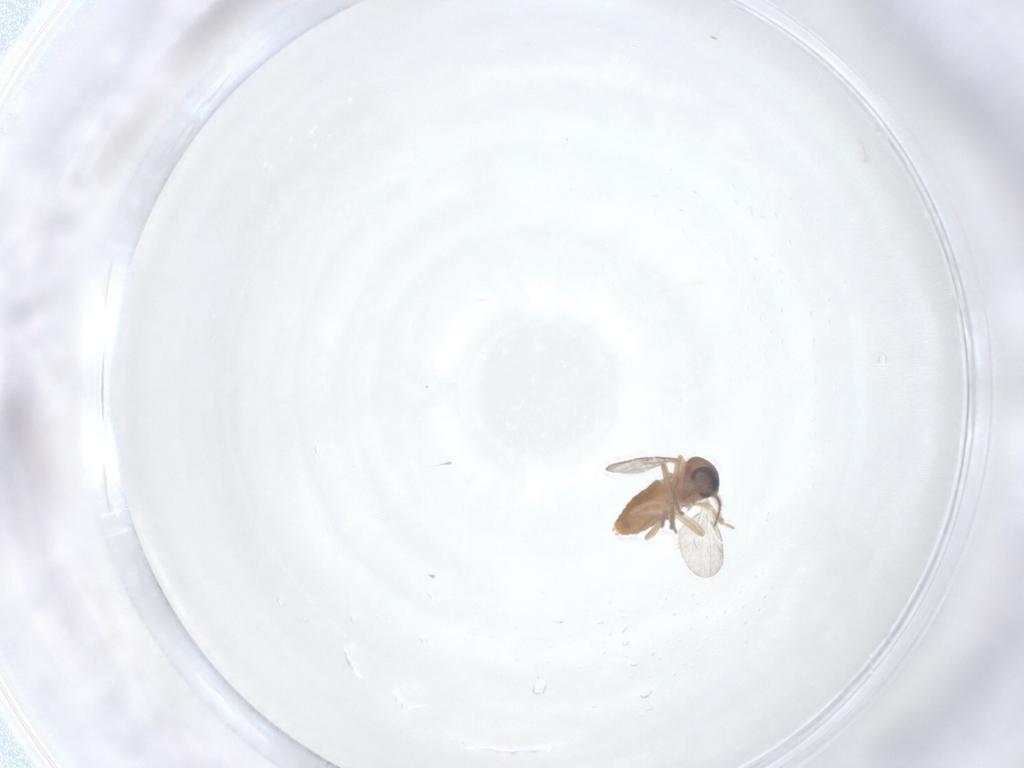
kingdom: Animalia
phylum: Arthropoda
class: Insecta
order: Diptera
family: Ceratopogonidae
